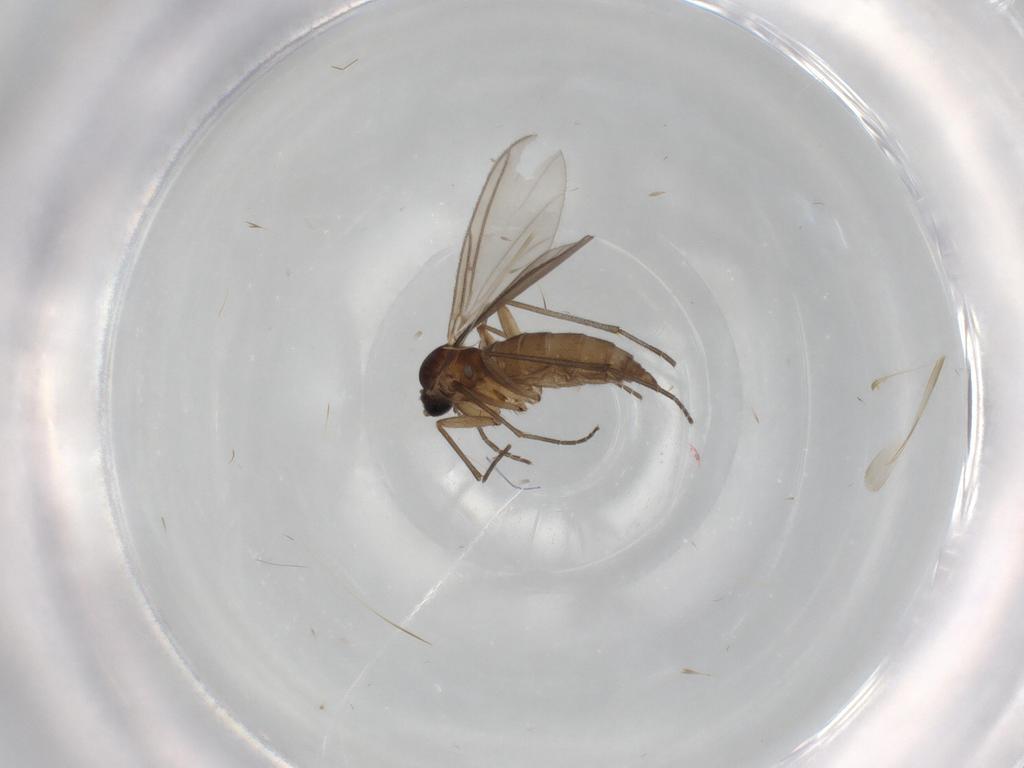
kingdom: Animalia
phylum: Arthropoda
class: Insecta
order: Diptera
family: Sciaridae
